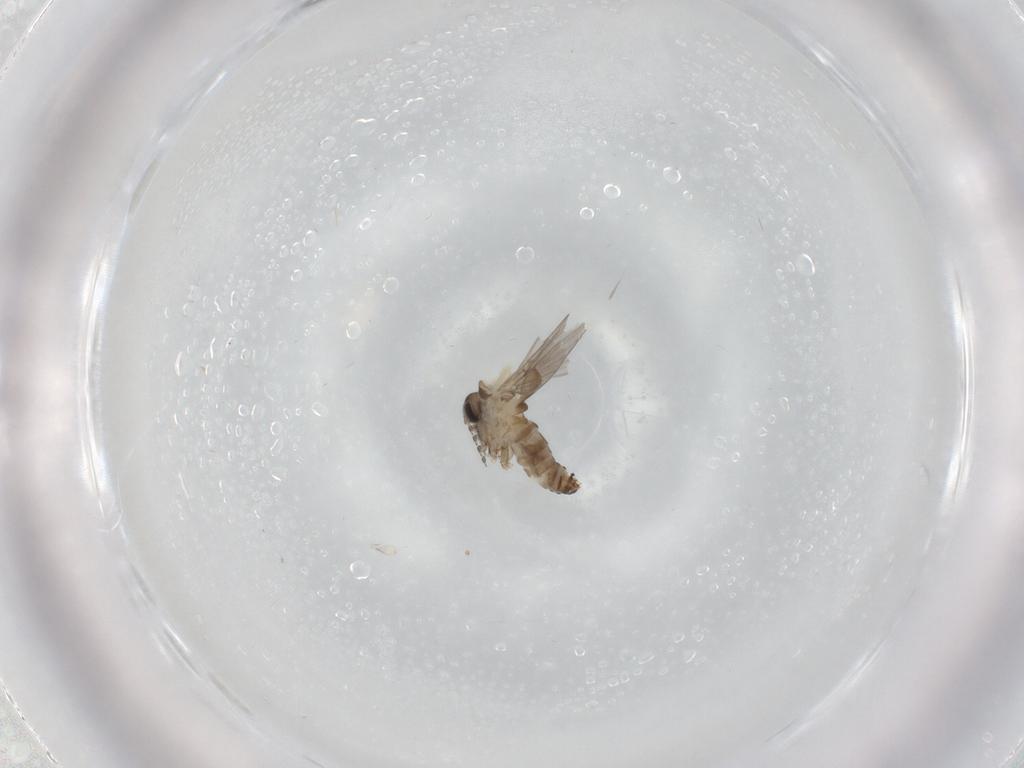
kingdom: Animalia
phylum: Arthropoda
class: Insecta
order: Diptera
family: Psychodidae
